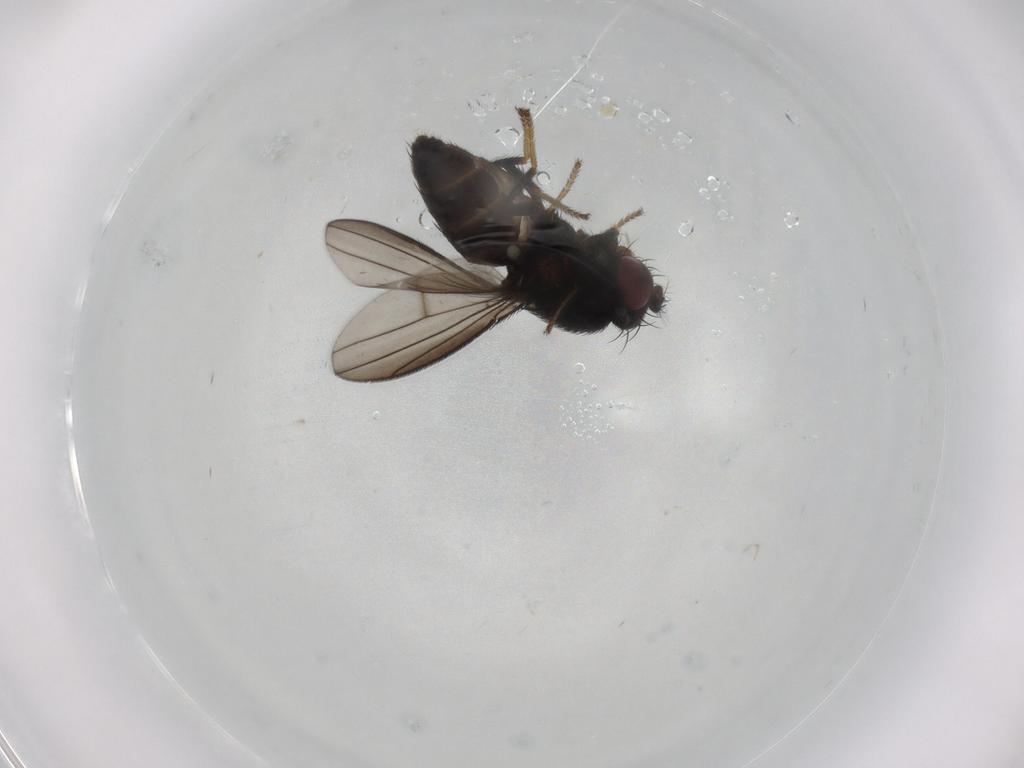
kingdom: Animalia
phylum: Arthropoda
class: Insecta
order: Diptera
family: Ephydridae
